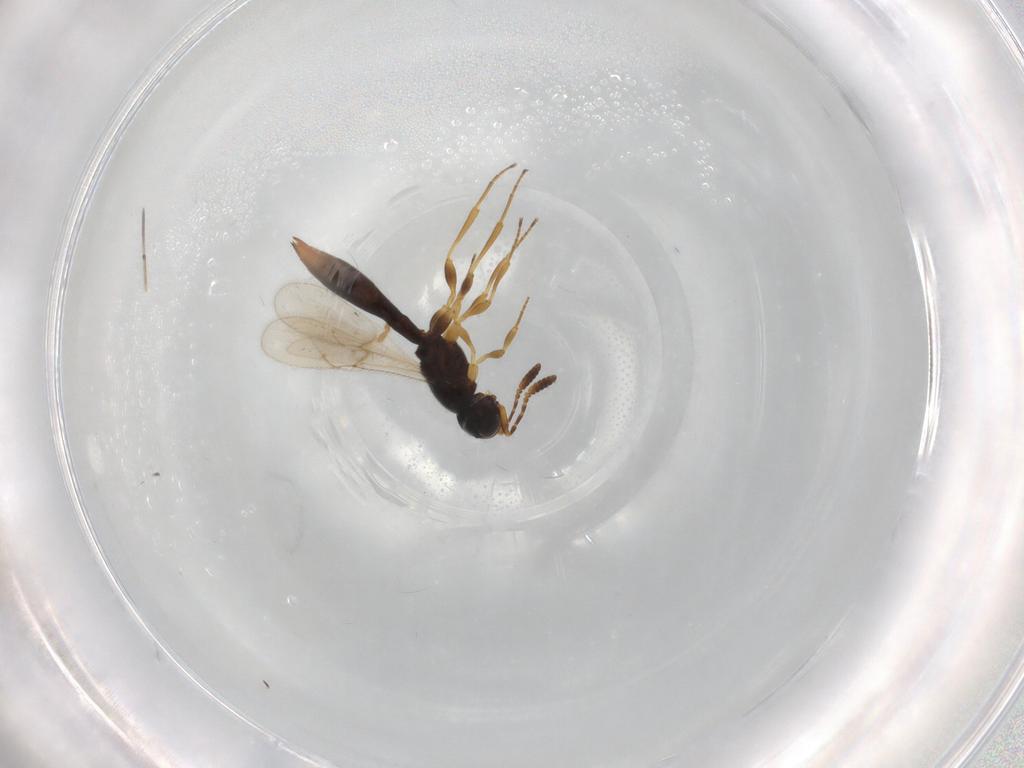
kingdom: Animalia
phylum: Arthropoda
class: Insecta
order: Hymenoptera
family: Scelionidae
